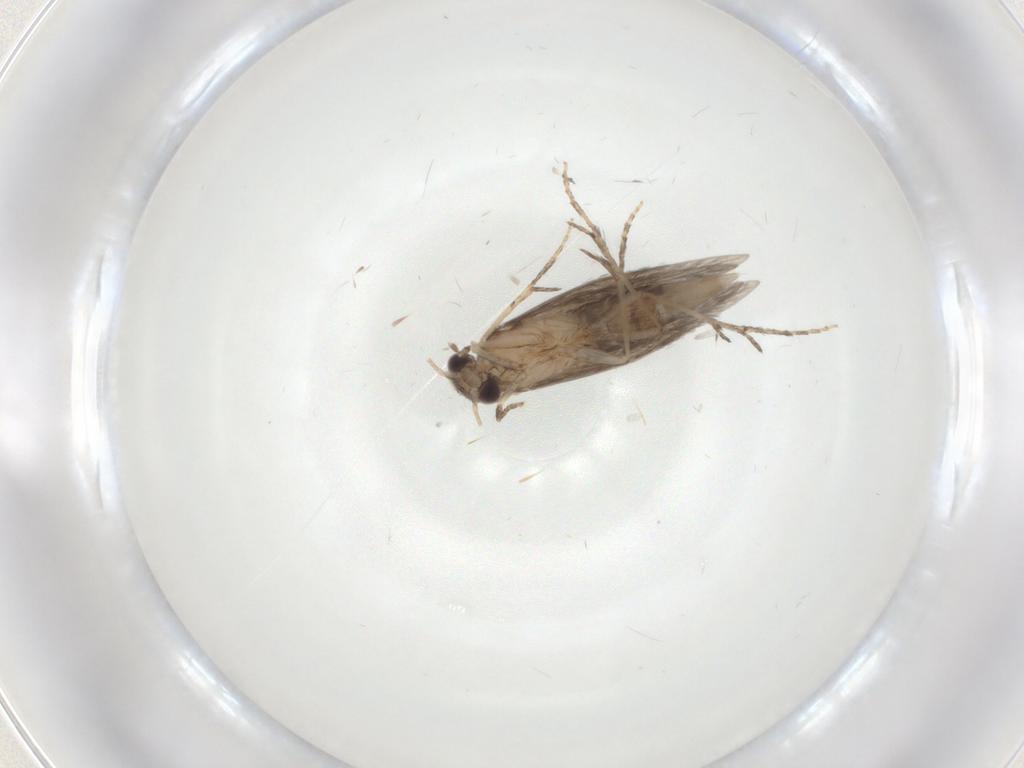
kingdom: Animalia
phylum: Arthropoda
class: Insecta
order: Trichoptera
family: Hydroptilidae
